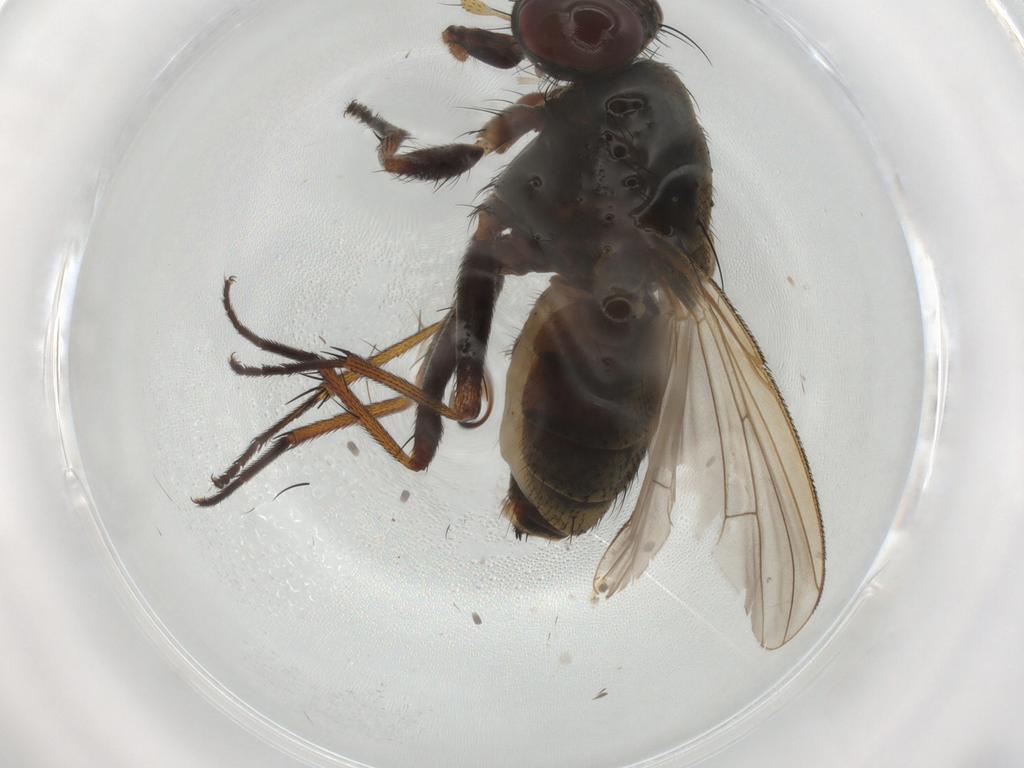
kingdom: Animalia
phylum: Arthropoda
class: Insecta
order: Diptera
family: Muscidae
